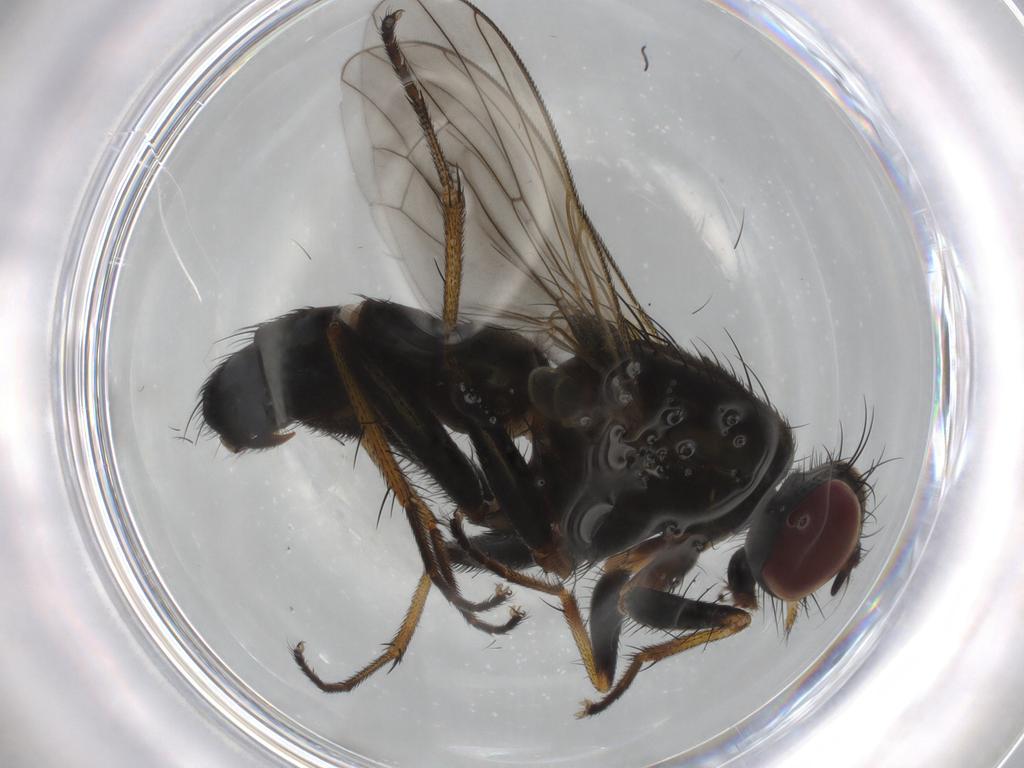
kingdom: Animalia
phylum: Arthropoda
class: Insecta
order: Diptera
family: Muscidae
